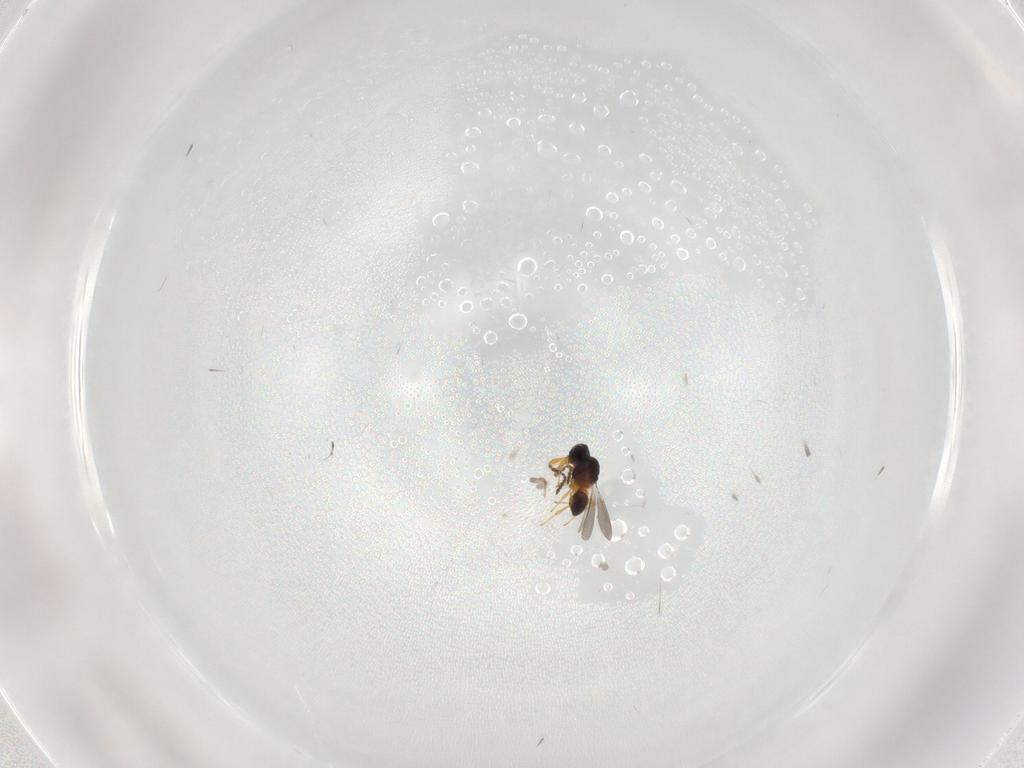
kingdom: Animalia
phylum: Arthropoda
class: Insecta
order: Hymenoptera
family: Platygastridae
